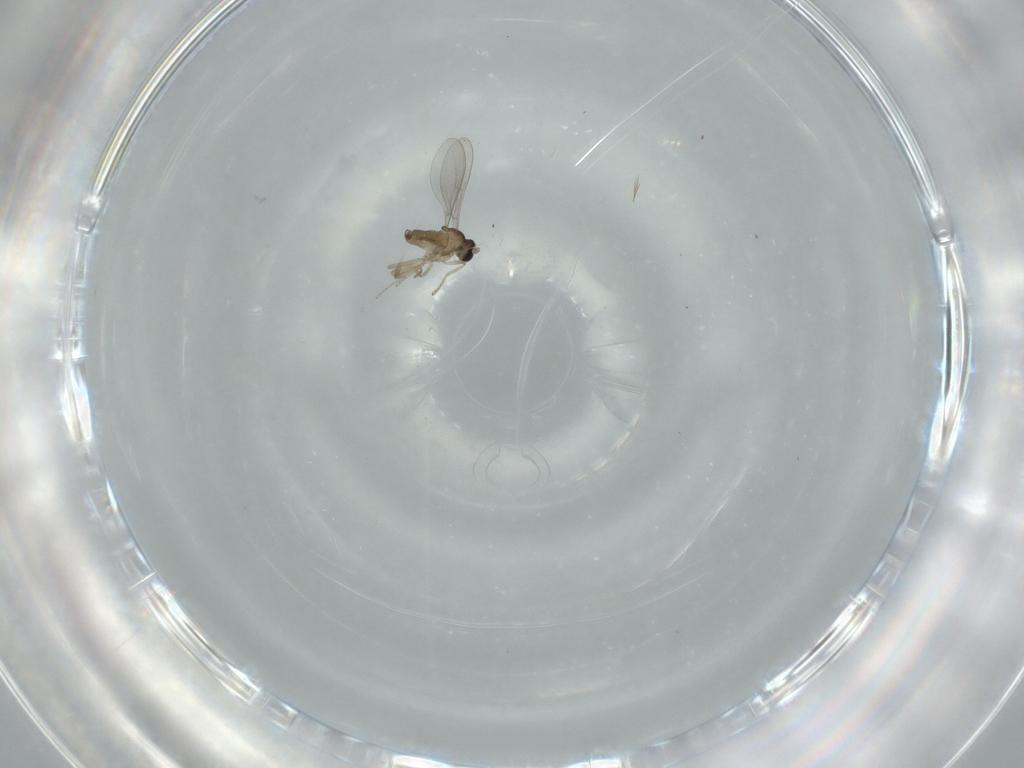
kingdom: Animalia
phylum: Arthropoda
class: Insecta
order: Diptera
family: Cecidomyiidae
